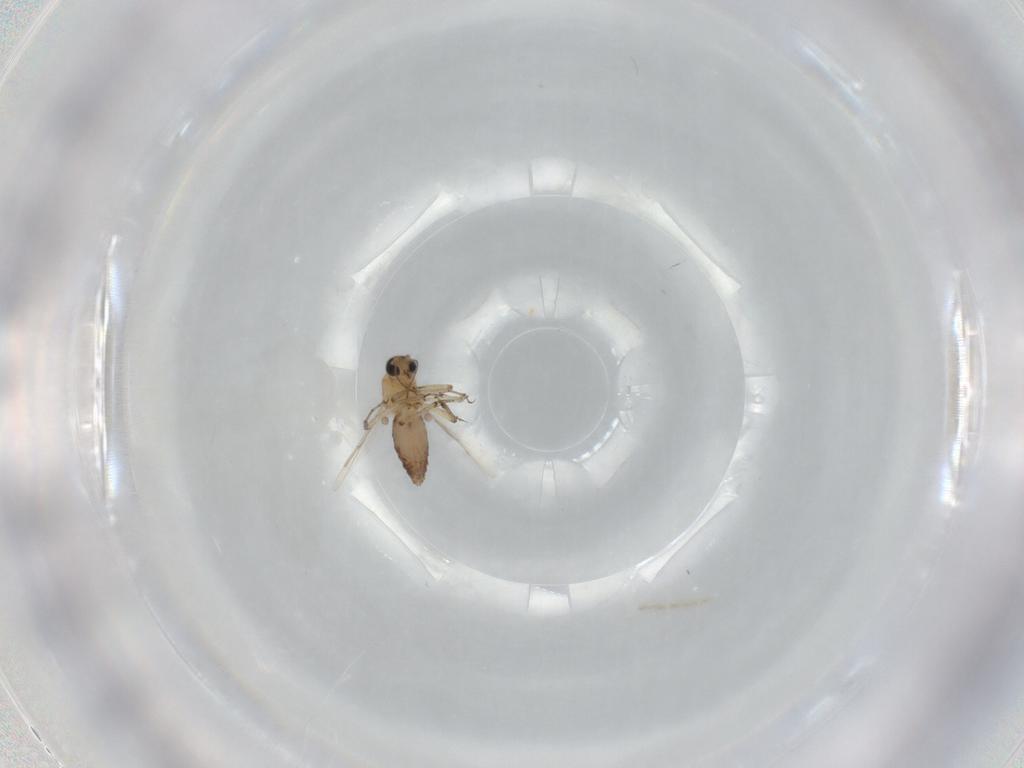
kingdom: Animalia
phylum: Arthropoda
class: Insecta
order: Diptera
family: Ceratopogonidae
